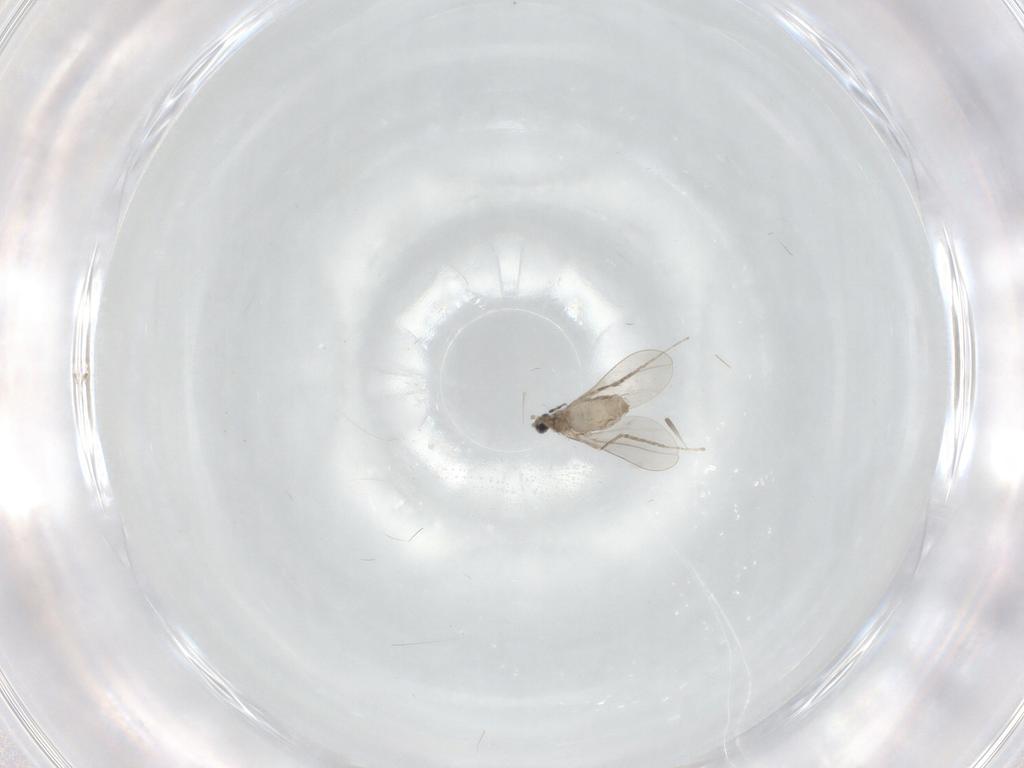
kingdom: Animalia
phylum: Arthropoda
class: Insecta
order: Diptera
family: Cecidomyiidae
